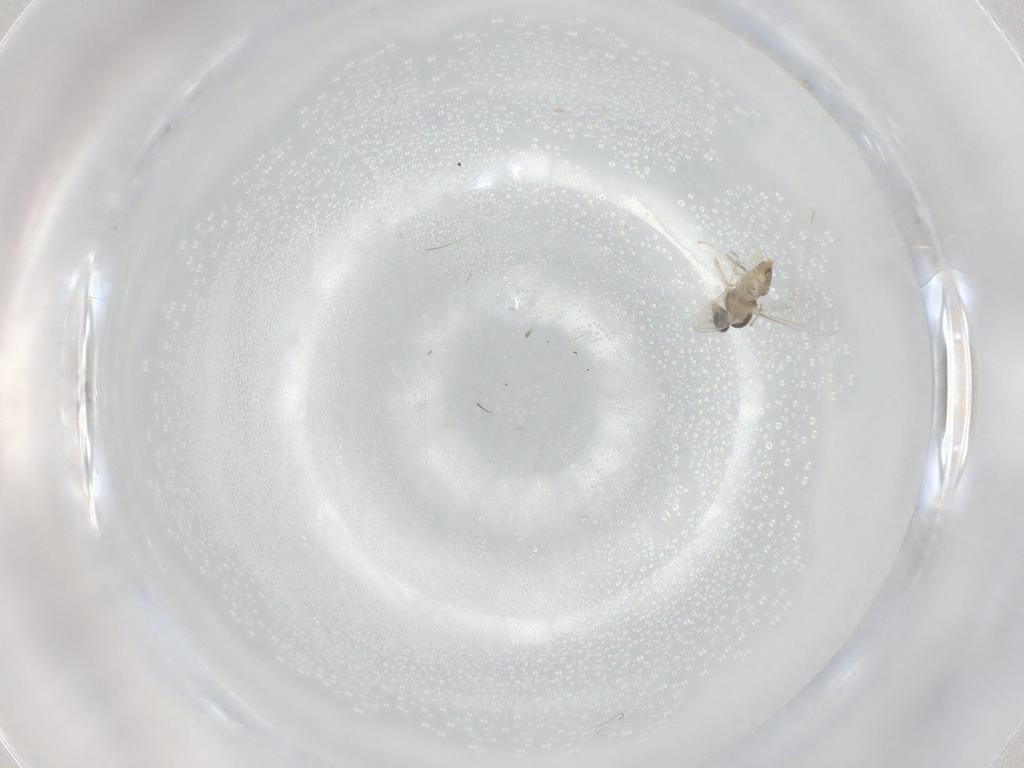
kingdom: Animalia
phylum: Arthropoda
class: Insecta
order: Diptera
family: Cecidomyiidae
